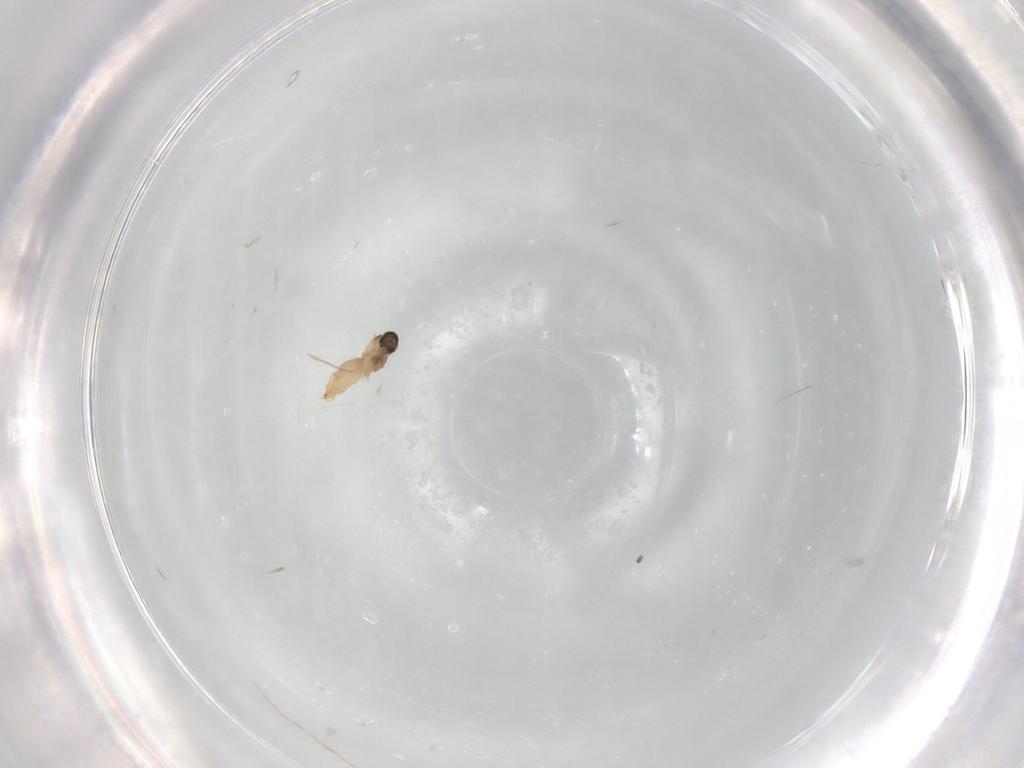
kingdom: Animalia
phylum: Arthropoda
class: Insecta
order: Diptera
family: Cecidomyiidae
